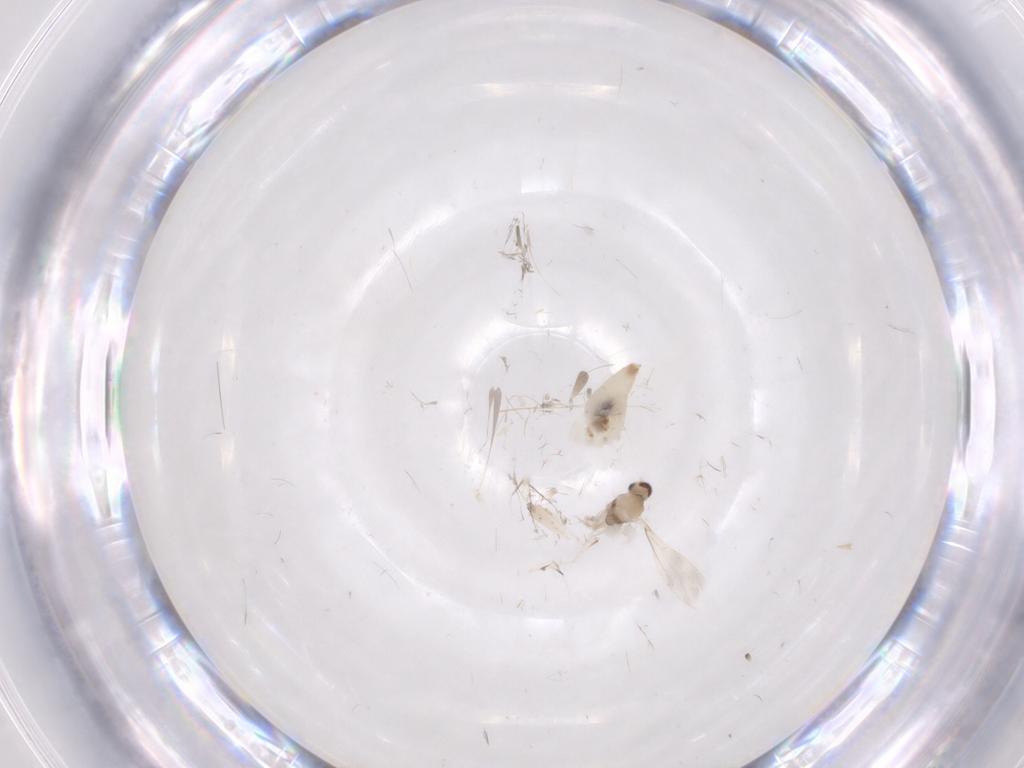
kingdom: Animalia
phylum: Arthropoda
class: Insecta
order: Diptera
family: Cecidomyiidae
